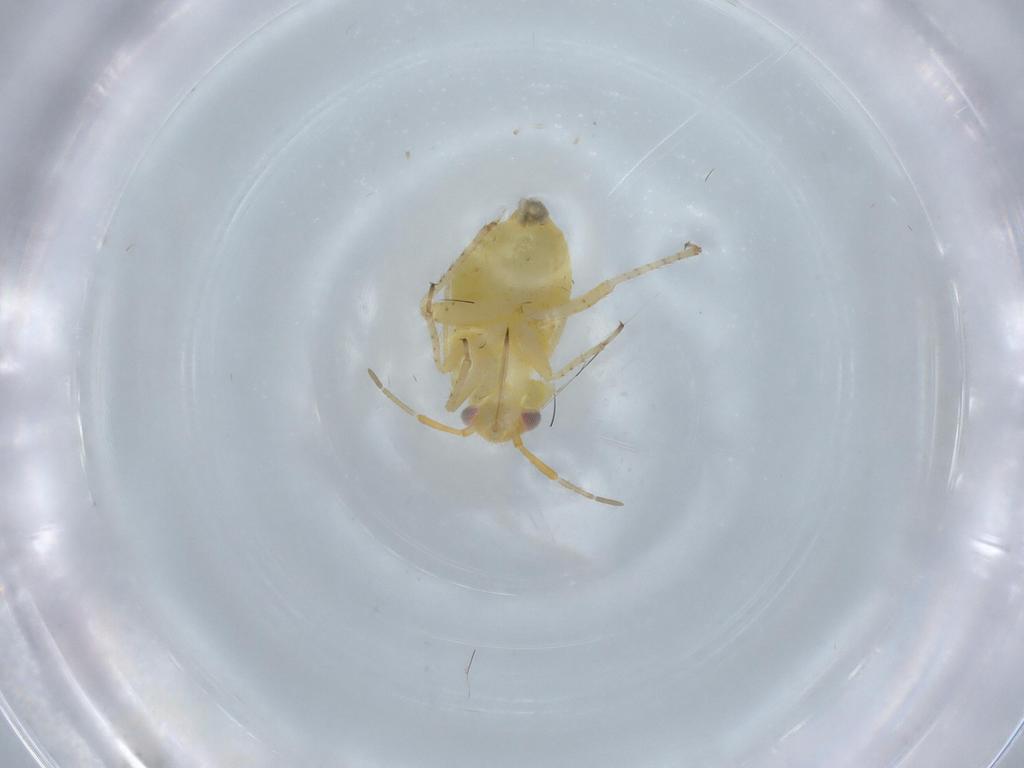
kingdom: Animalia
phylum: Arthropoda
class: Insecta
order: Hemiptera
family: Miridae
